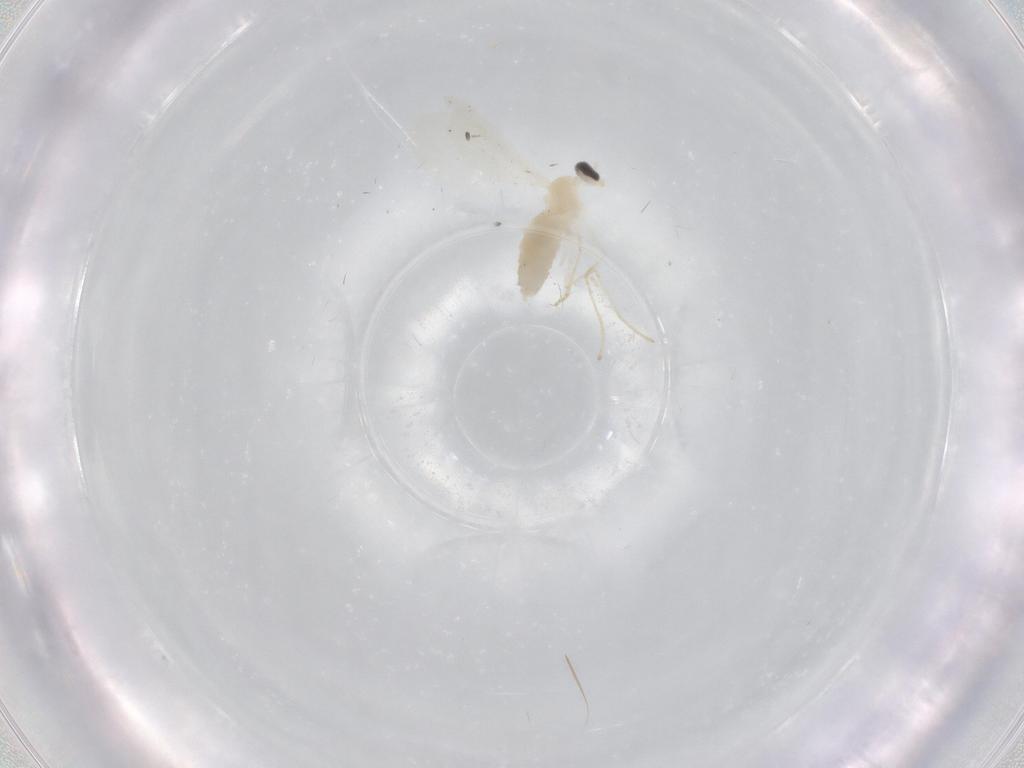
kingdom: Animalia
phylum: Arthropoda
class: Insecta
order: Diptera
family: Cecidomyiidae
